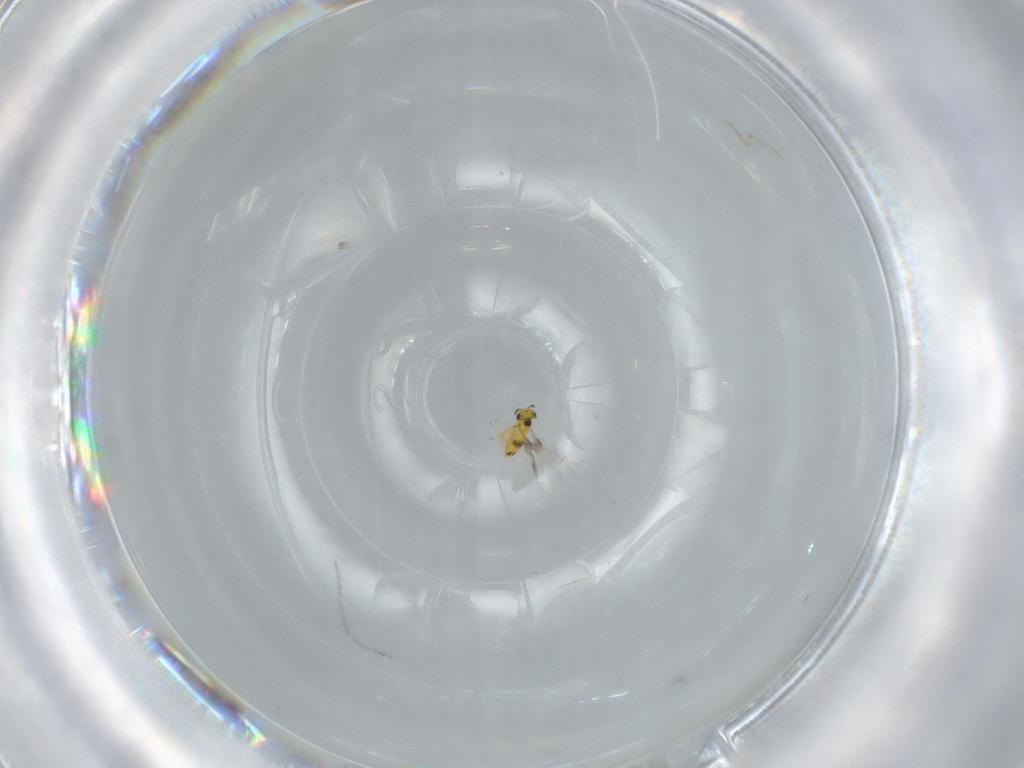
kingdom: Animalia
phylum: Arthropoda
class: Insecta
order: Hymenoptera
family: Signiphoridae
